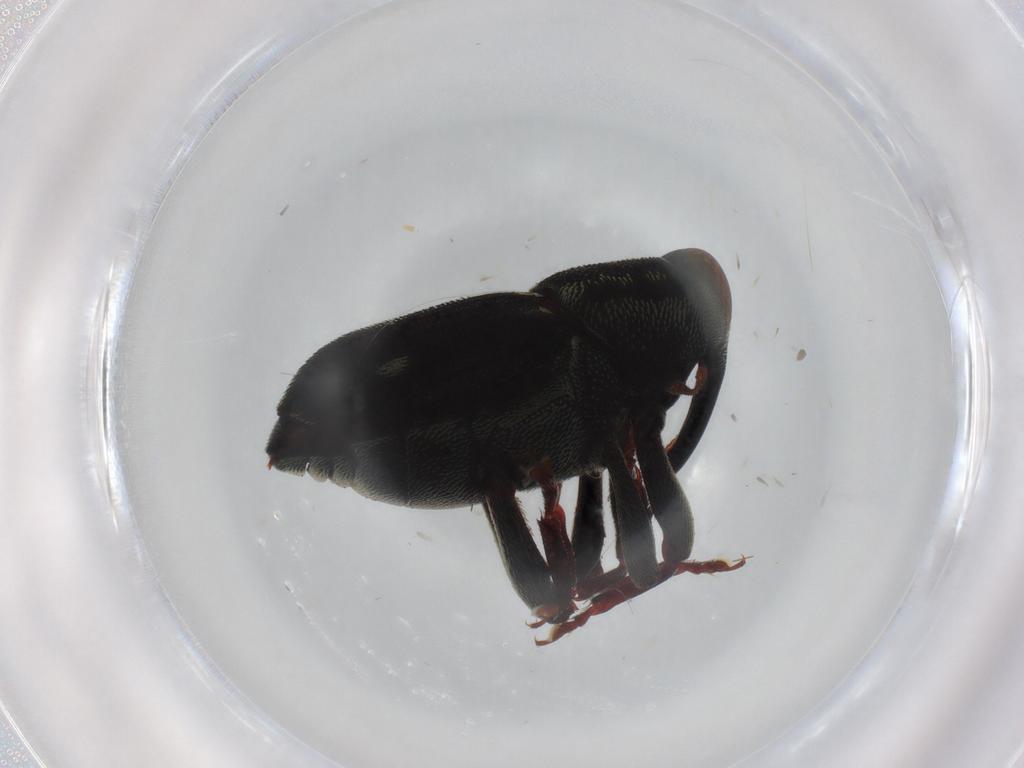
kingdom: Animalia
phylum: Arthropoda
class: Insecta
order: Coleoptera
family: Curculionidae
